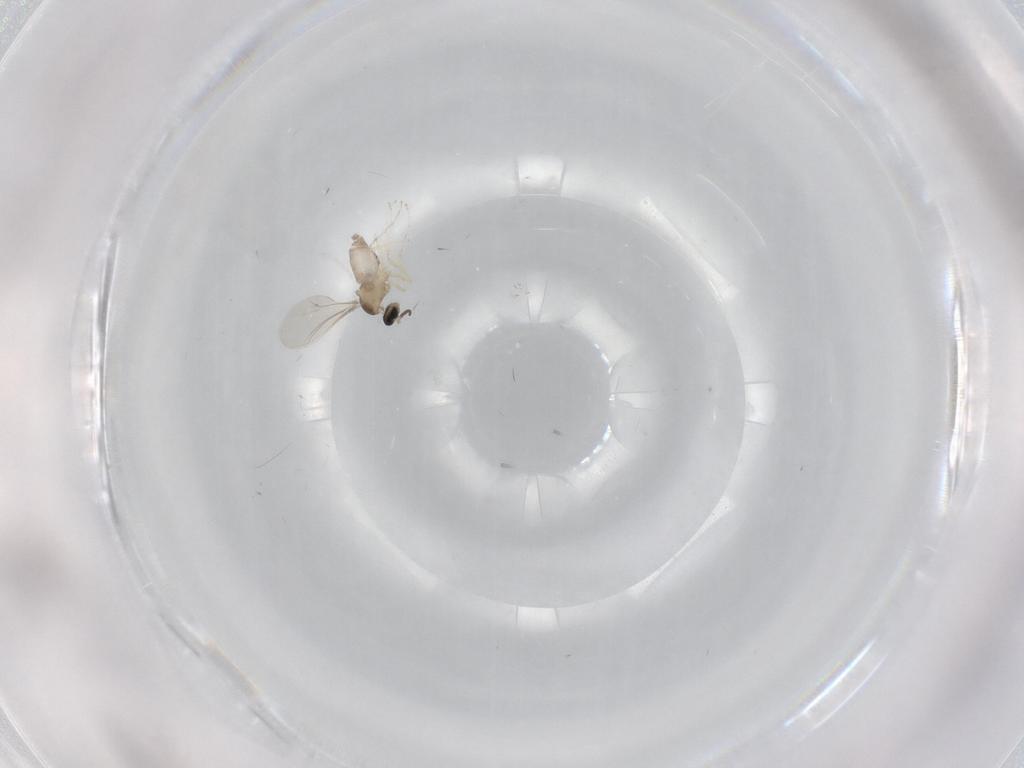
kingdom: Animalia
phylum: Arthropoda
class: Insecta
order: Diptera
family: Cecidomyiidae
